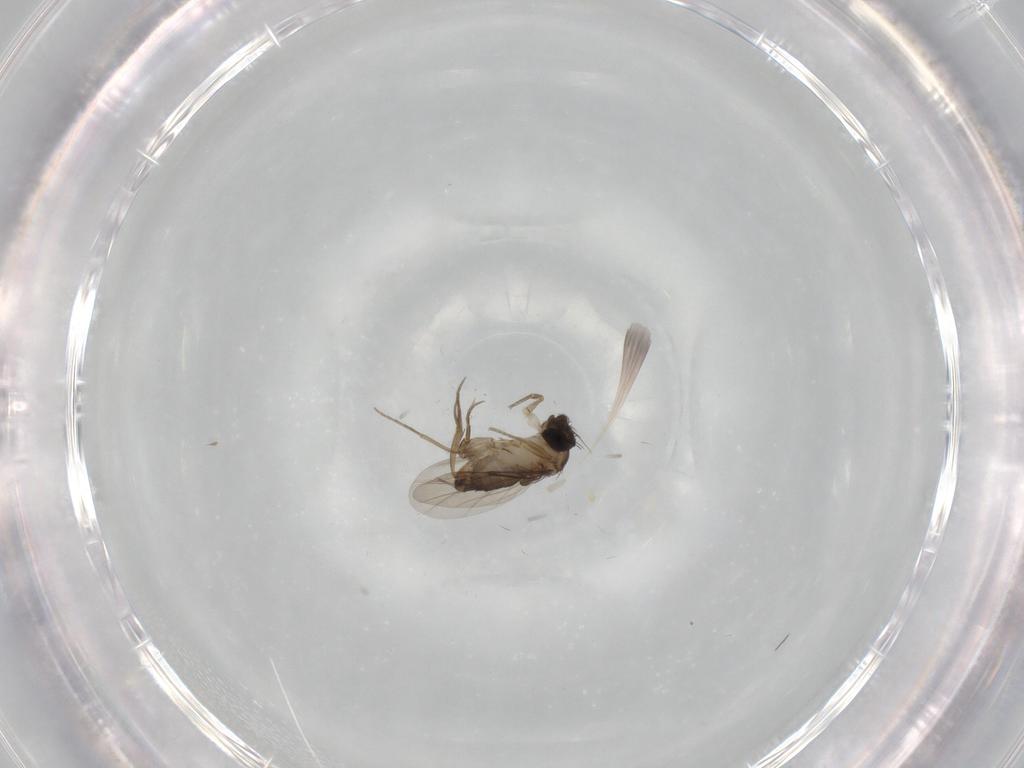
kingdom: Animalia
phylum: Arthropoda
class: Insecta
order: Diptera
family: Phoridae
